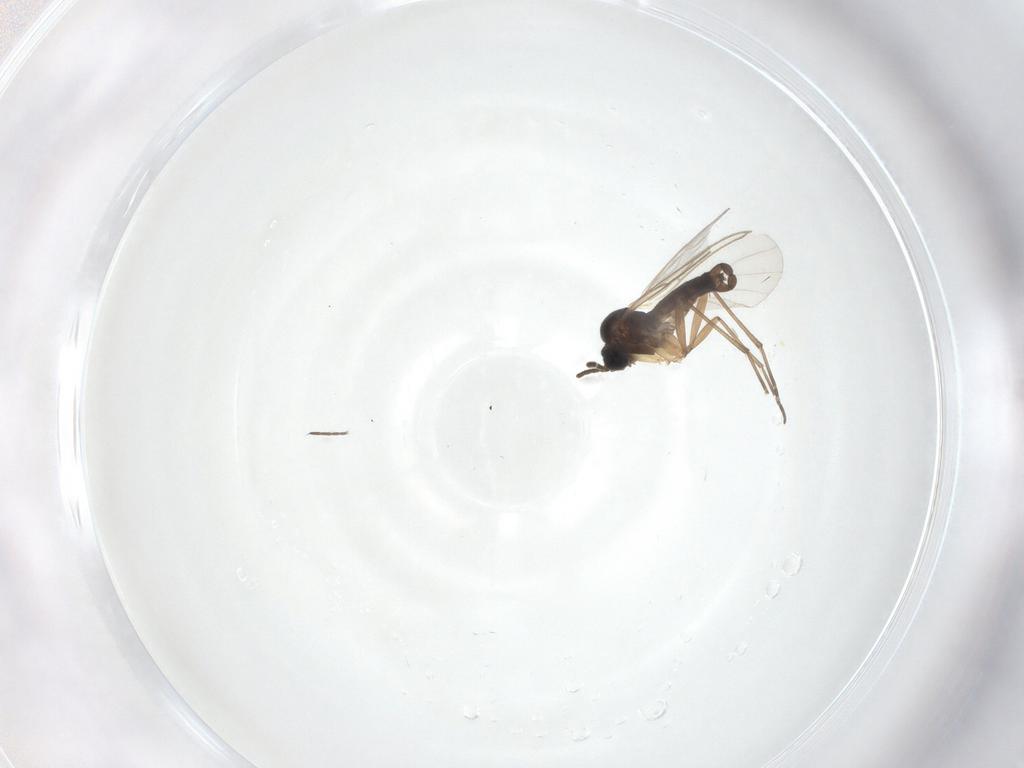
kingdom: Animalia
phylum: Arthropoda
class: Insecta
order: Diptera
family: Sciaridae
